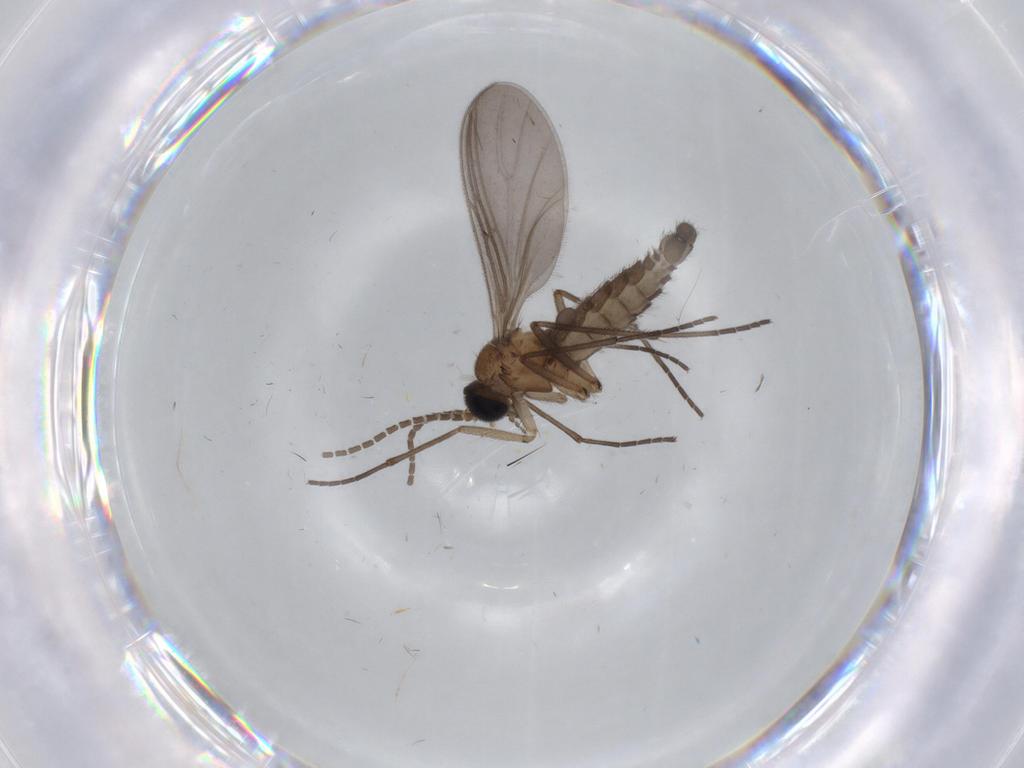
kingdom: Animalia
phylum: Arthropoda
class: Insecta
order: Diptera
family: Sciaridae
